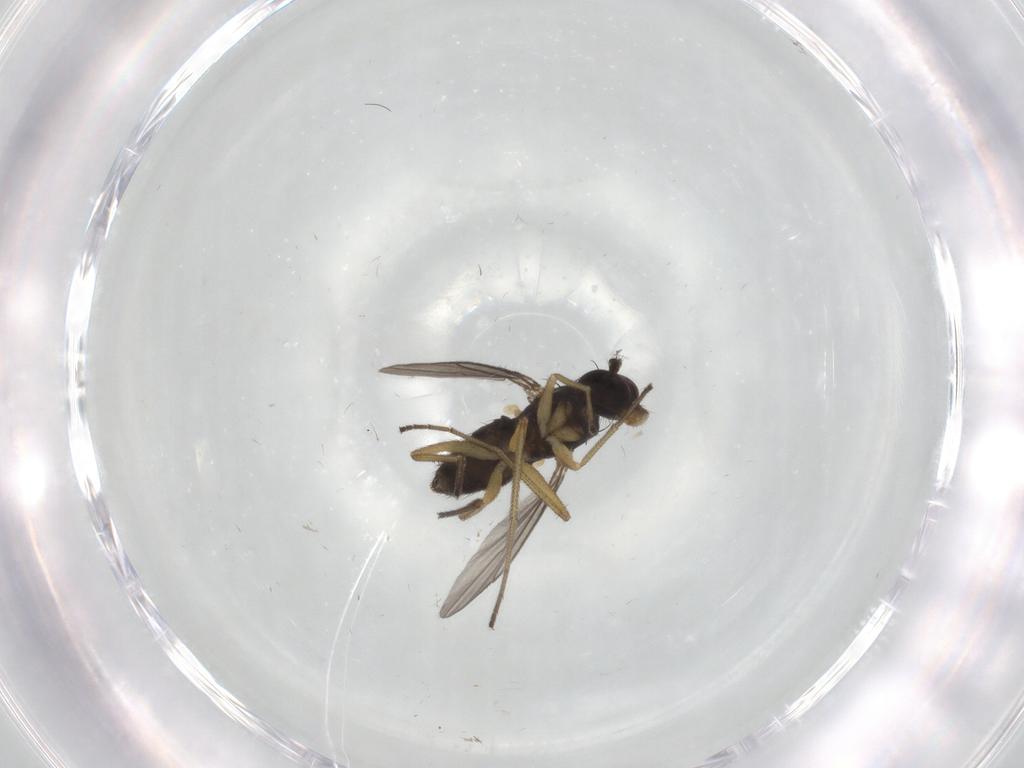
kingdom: Animalia
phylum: Arthropoda
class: Insecta
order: Diptera
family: Dolichopodidae
